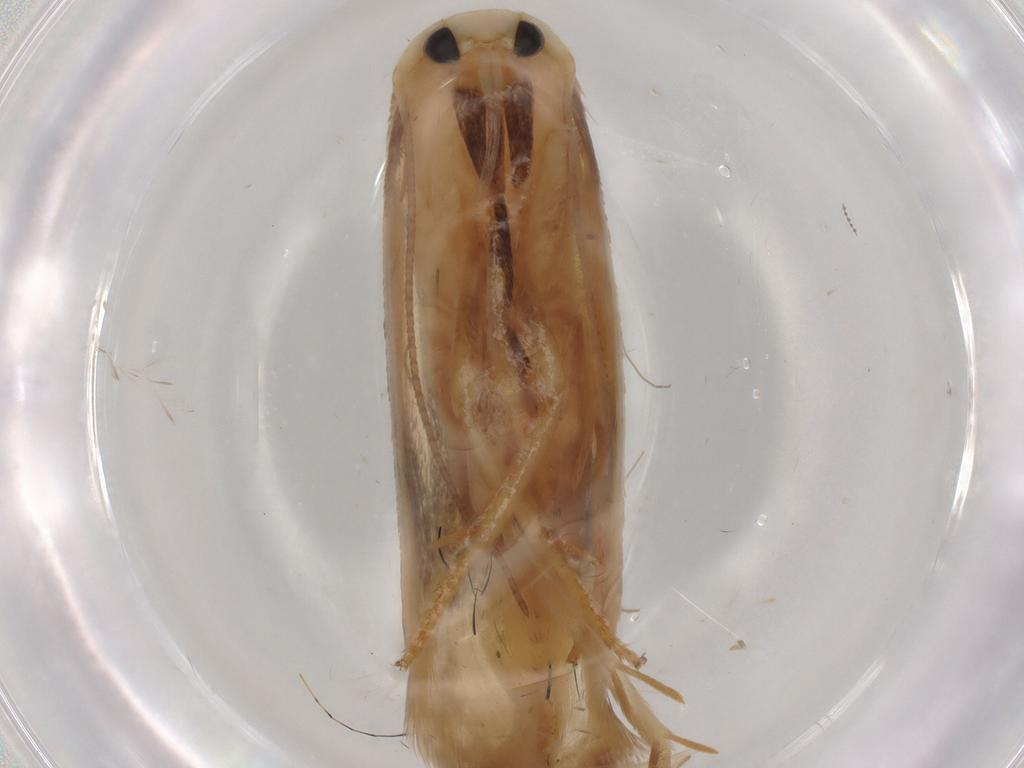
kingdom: Animalia
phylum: Arthropoda
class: Insecta
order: Lepidoptera
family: Geometridae
